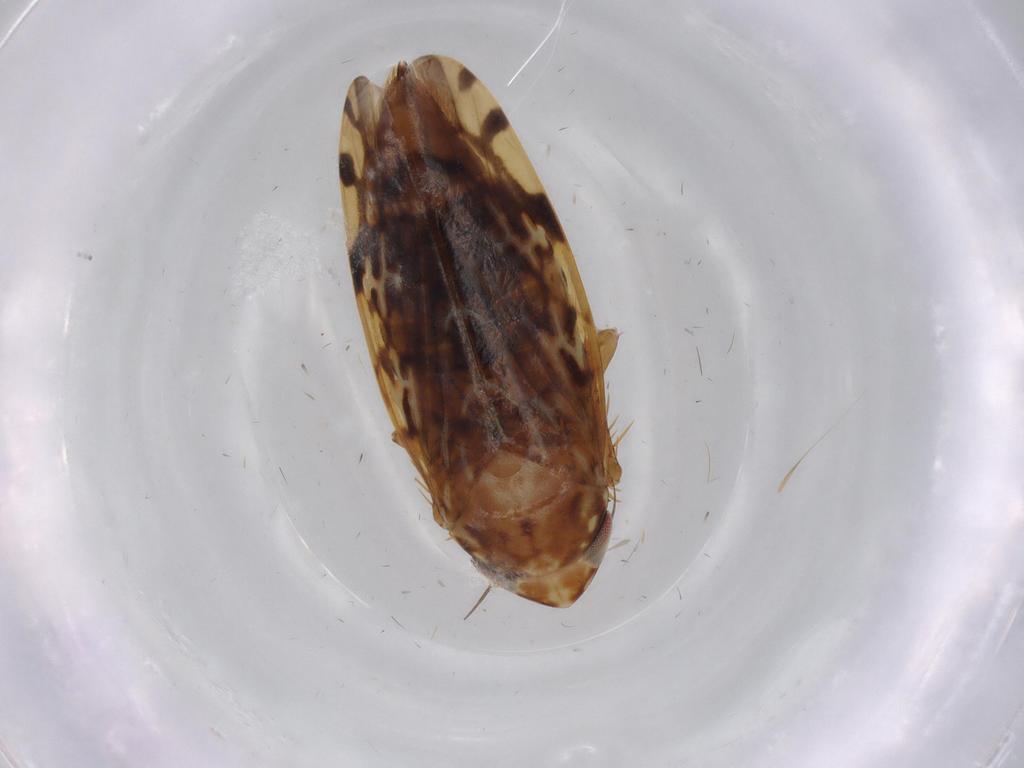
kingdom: Animalia
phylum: Arthropoda
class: Insecta
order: Hemiptera
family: Cicadellidae
